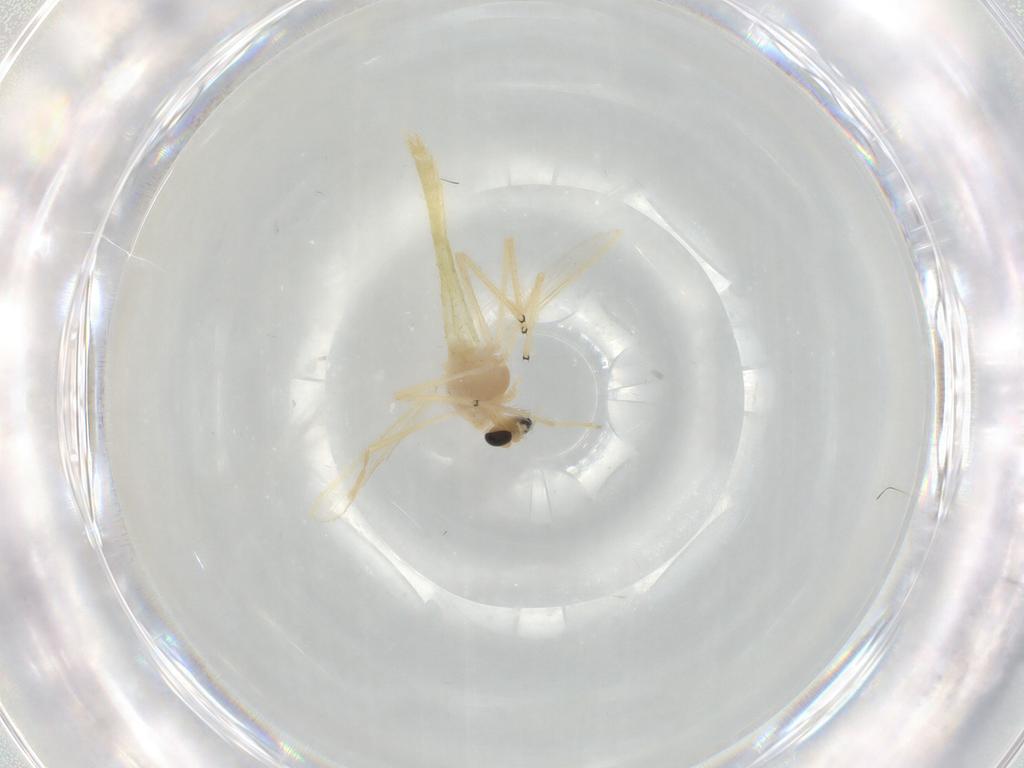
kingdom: Animalia
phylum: Arthropoda
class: Insecta
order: Diptera
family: Chironomidae
